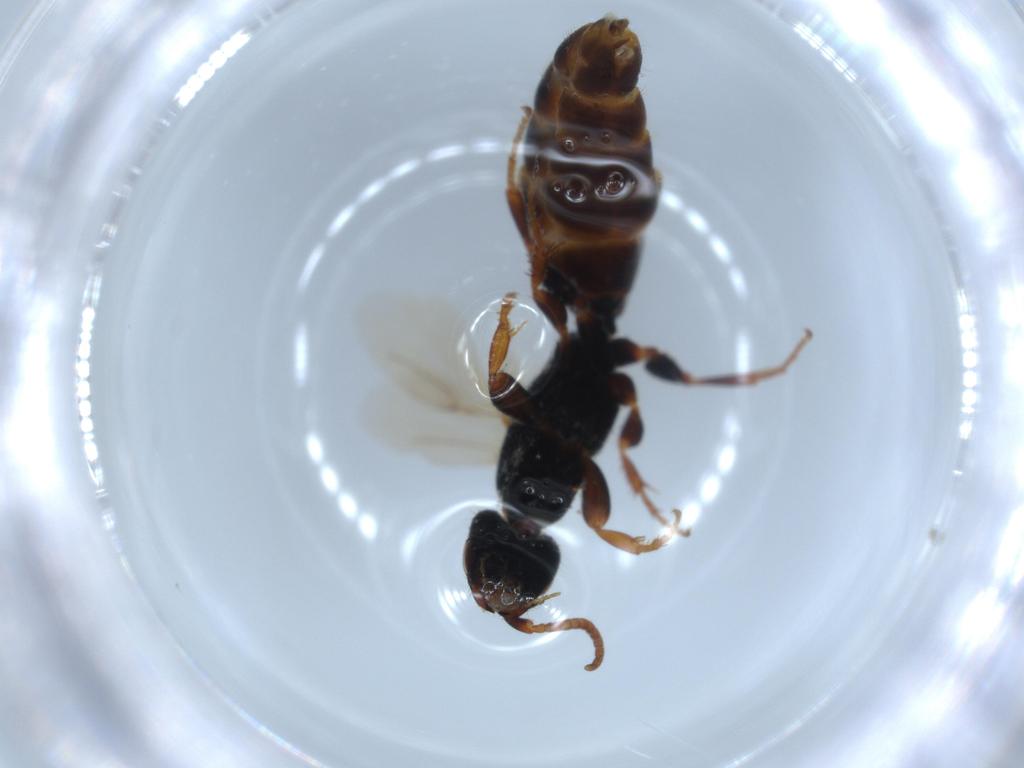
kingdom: Animalia
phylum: Arthropoda
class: Insecta
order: Hymenoptera
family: Bethylidae
